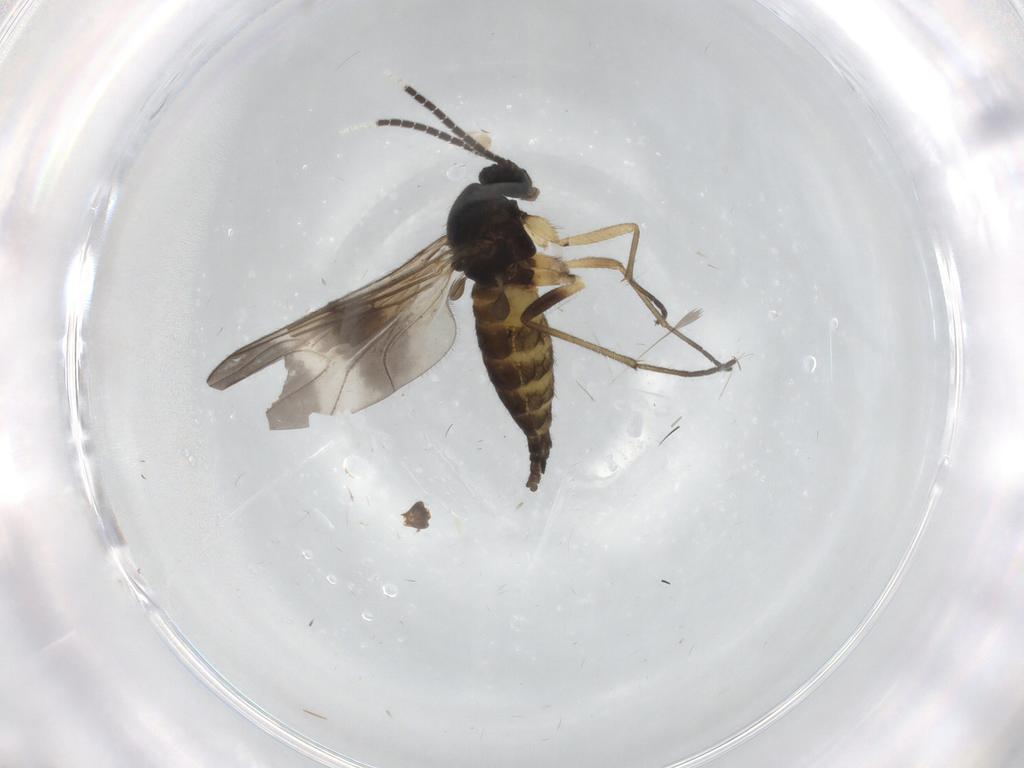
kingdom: Animalia
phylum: Arthropoda
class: Insecta
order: Diptera
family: Sciaridae
